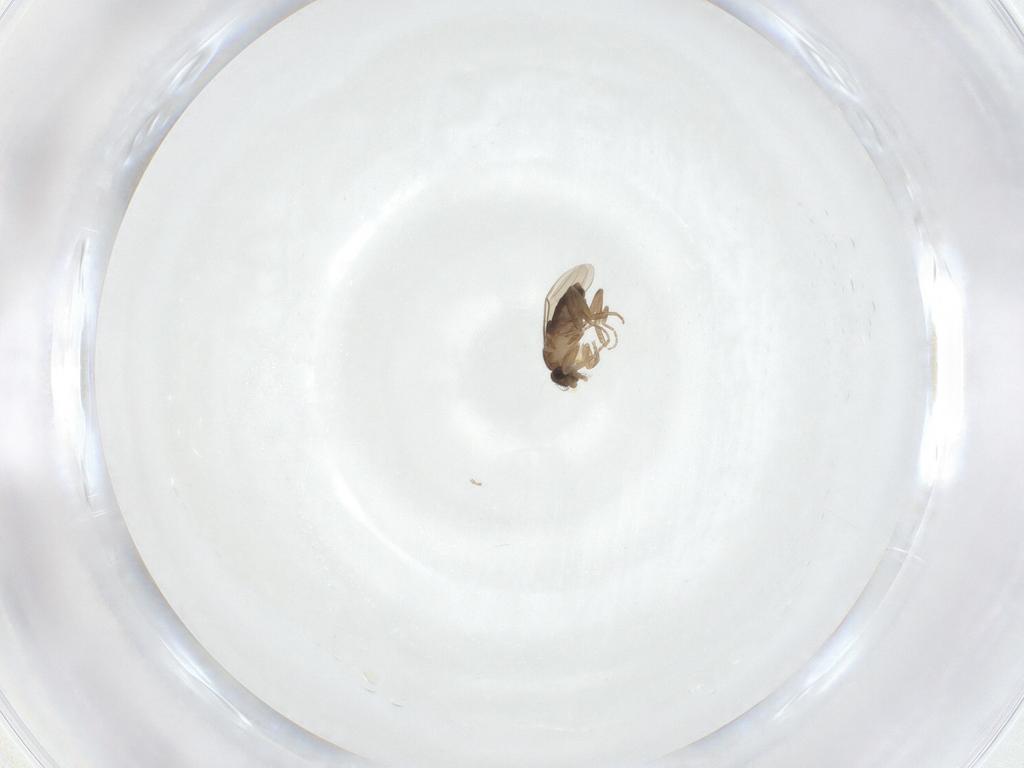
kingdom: Animalia
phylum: Arthropoda
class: Insecta
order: Diptera
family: Phoridae
